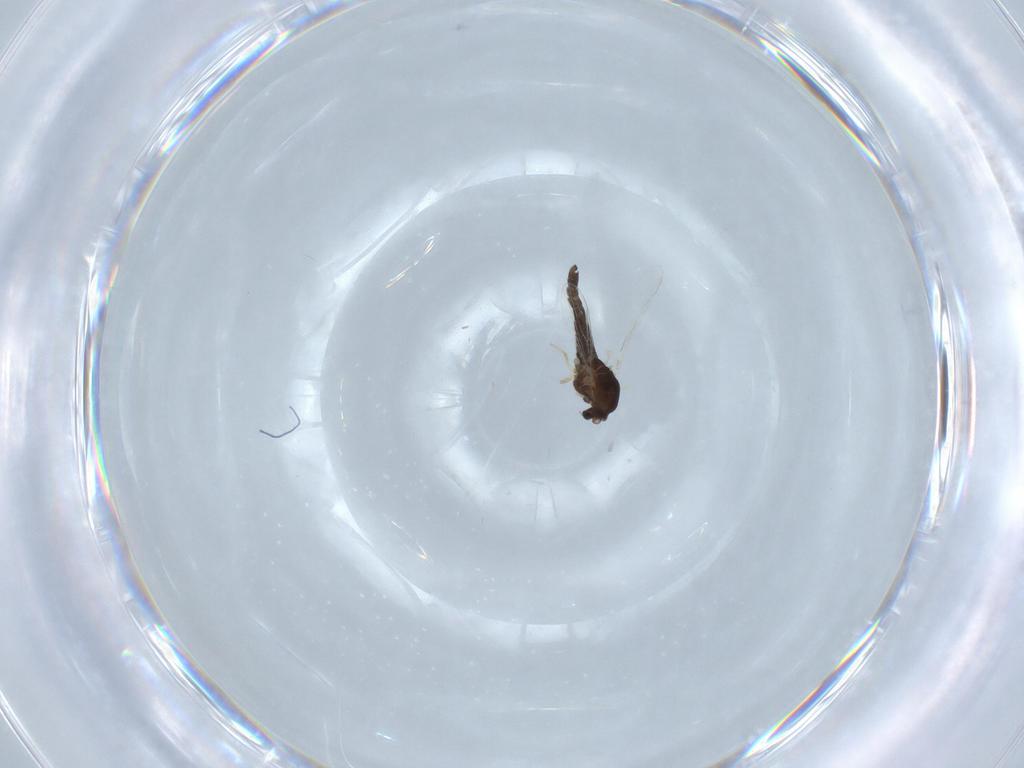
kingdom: Animalia
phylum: Arthropoda
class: Insecta
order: Diptera
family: Chironomidae
